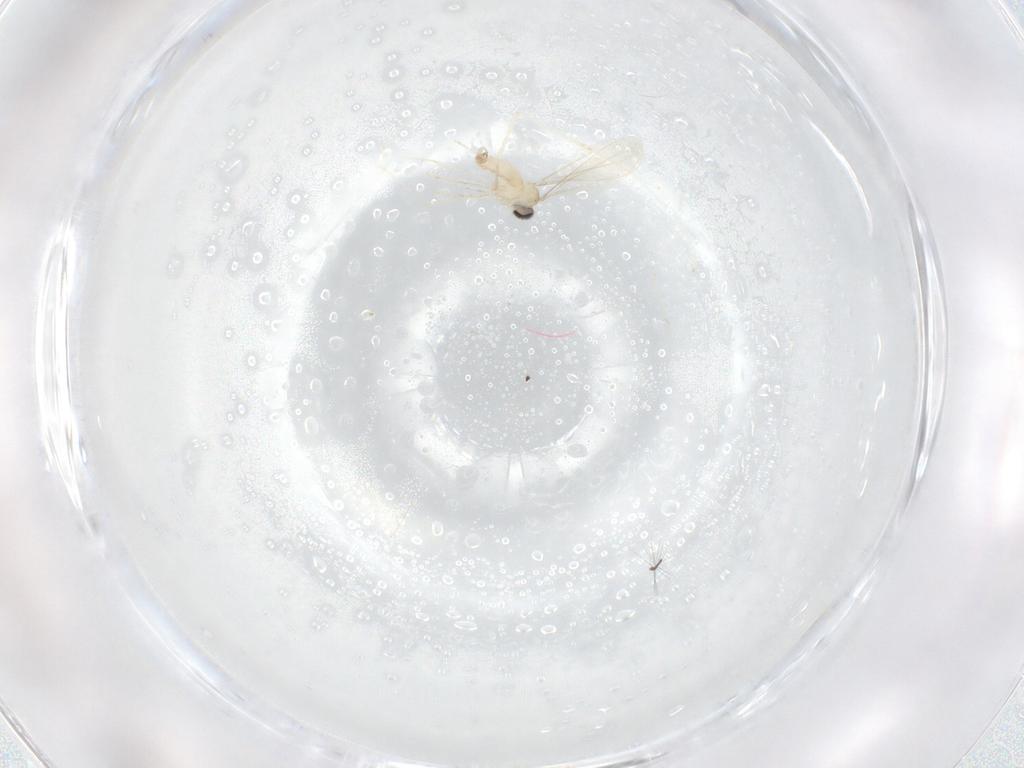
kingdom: Animalia
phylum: Arthropoda
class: Insecta
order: Diptera
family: Chironomidae
